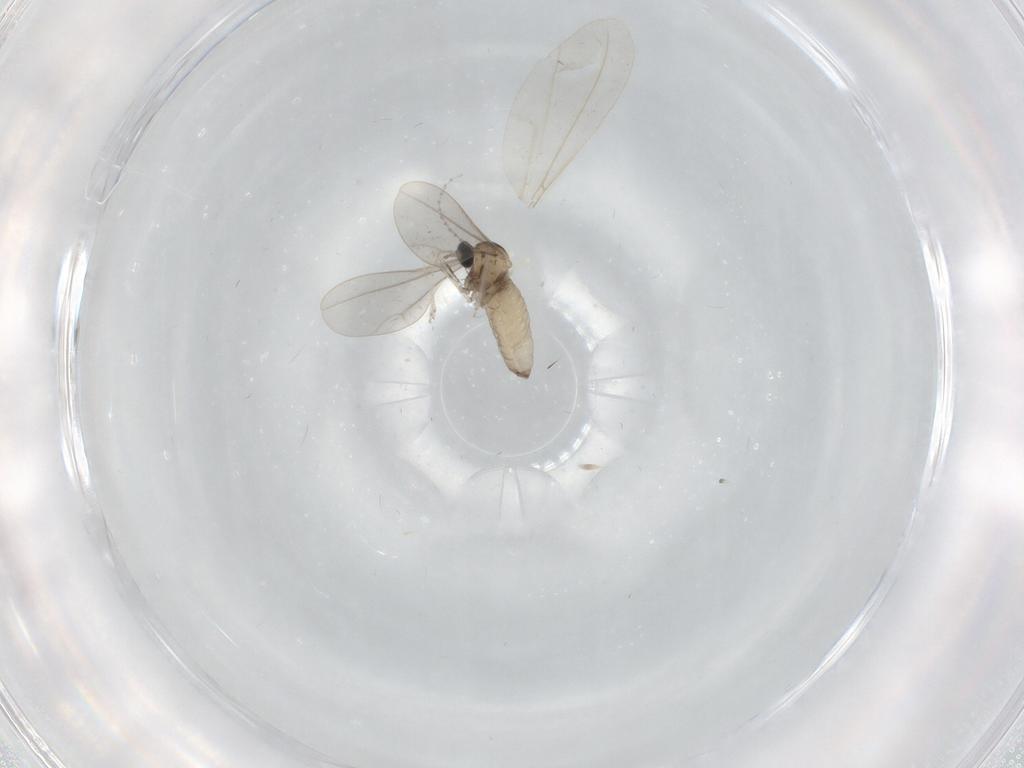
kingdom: Animalia
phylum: Arthropoda
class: Insecta
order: Diptera
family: Cecidomyiidae
